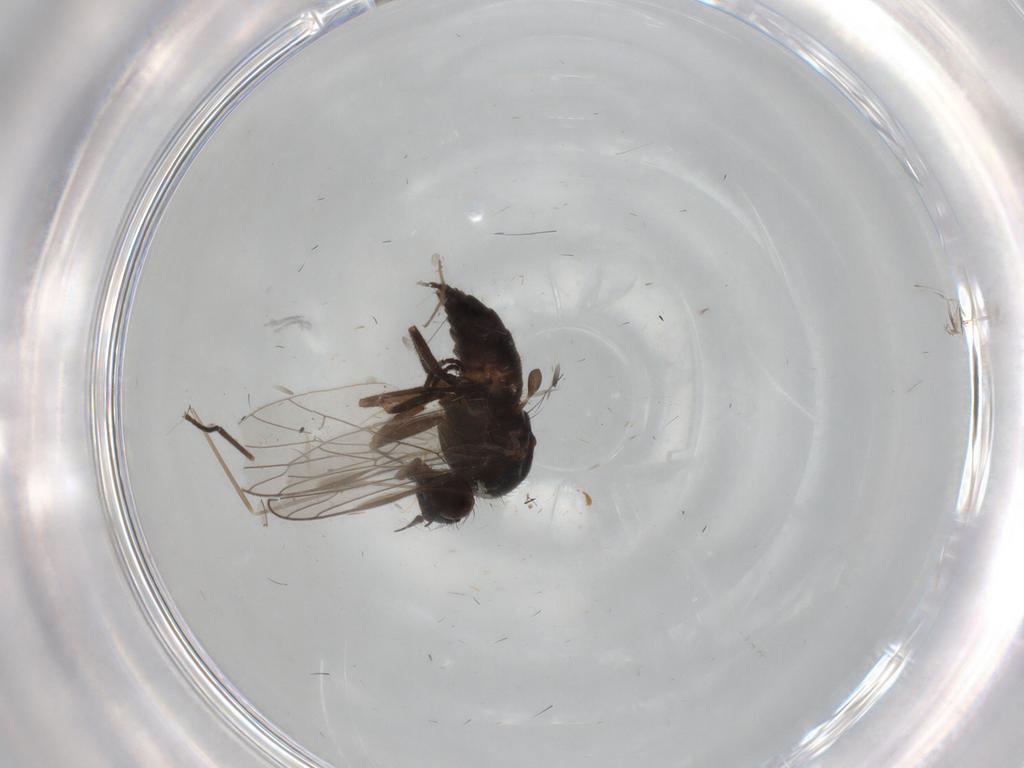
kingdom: Animalia
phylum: Arthropoda
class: Insecta
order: Diptera
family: Empididae
